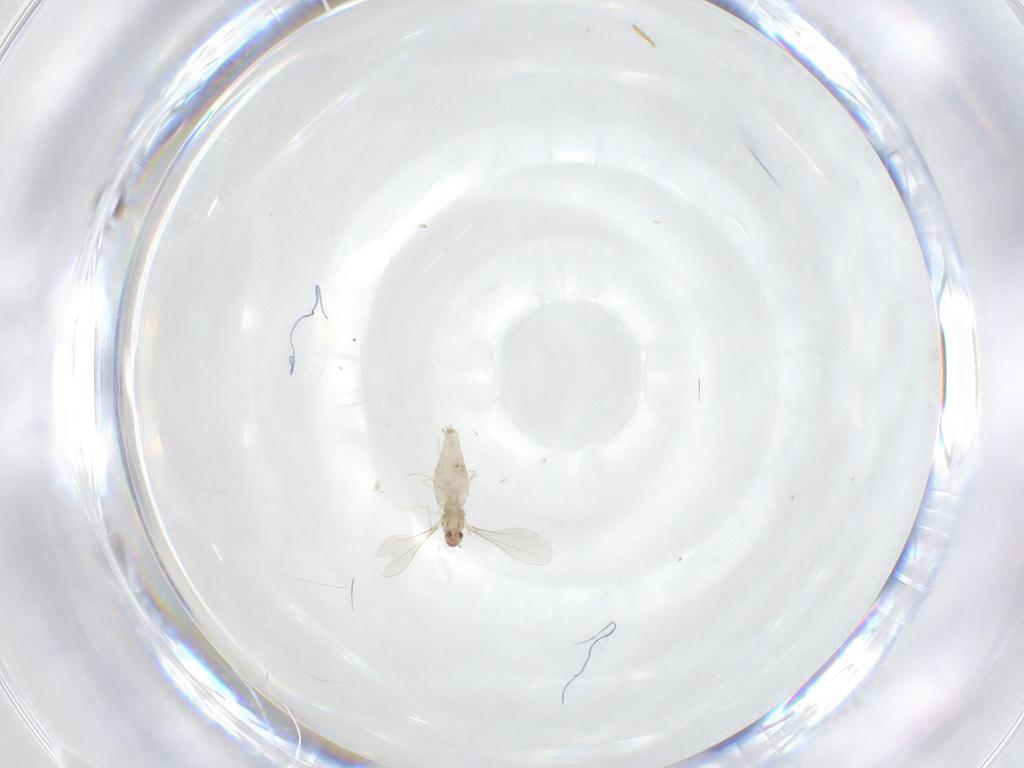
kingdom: Animalia
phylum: Arthropoda
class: Insecta
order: Diptera
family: Cecidomyiidae
